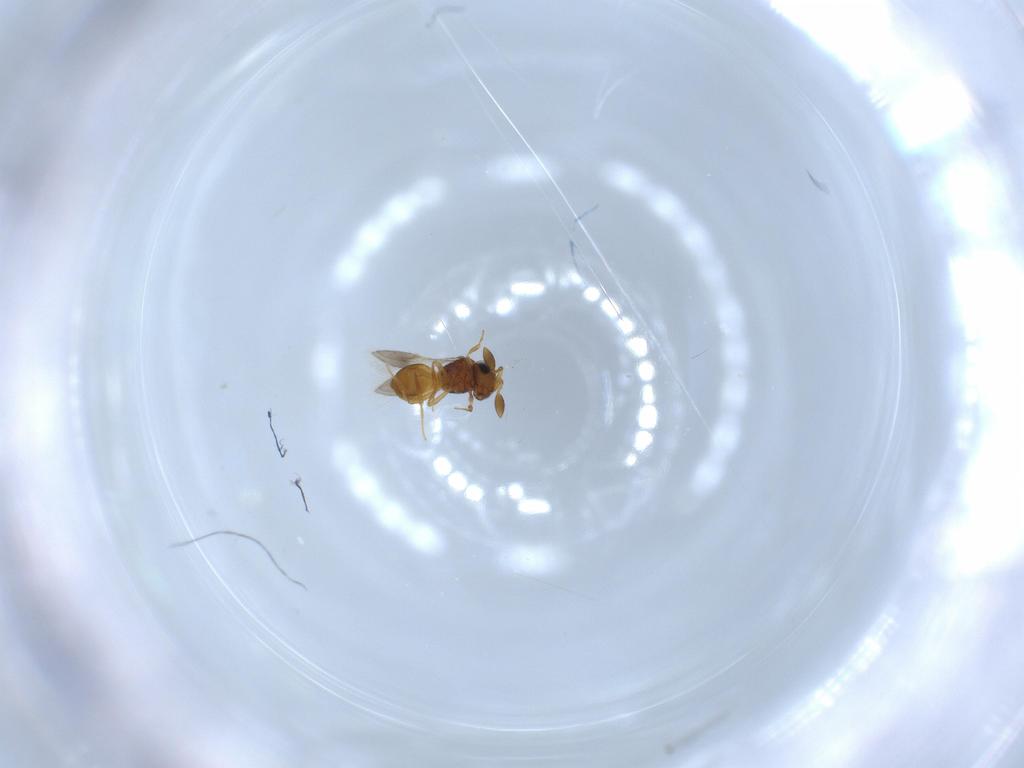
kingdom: Animalia
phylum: Arthropoda
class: Insecta
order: Hymenoptera
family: Scelionidae
